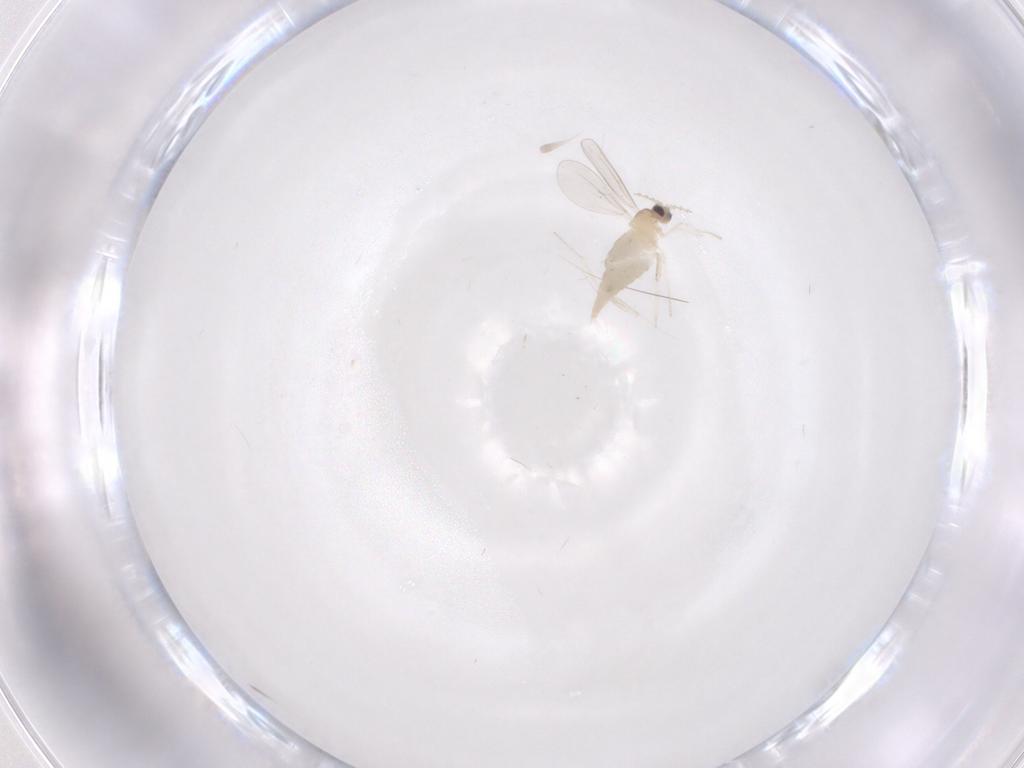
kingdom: Animalia
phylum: Arthropoda
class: Insecta
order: Diptera
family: Cecidomyiidae
